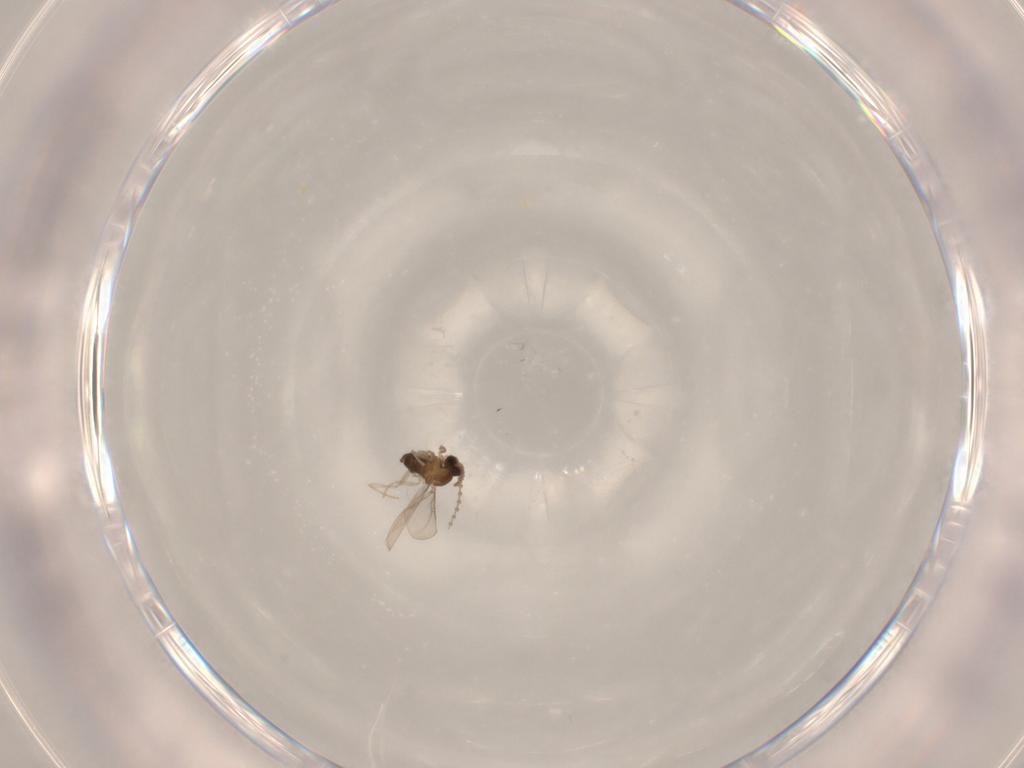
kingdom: Animalia
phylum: Arthropoda
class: Insecta
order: Diptera
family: Cecidomyiidae
